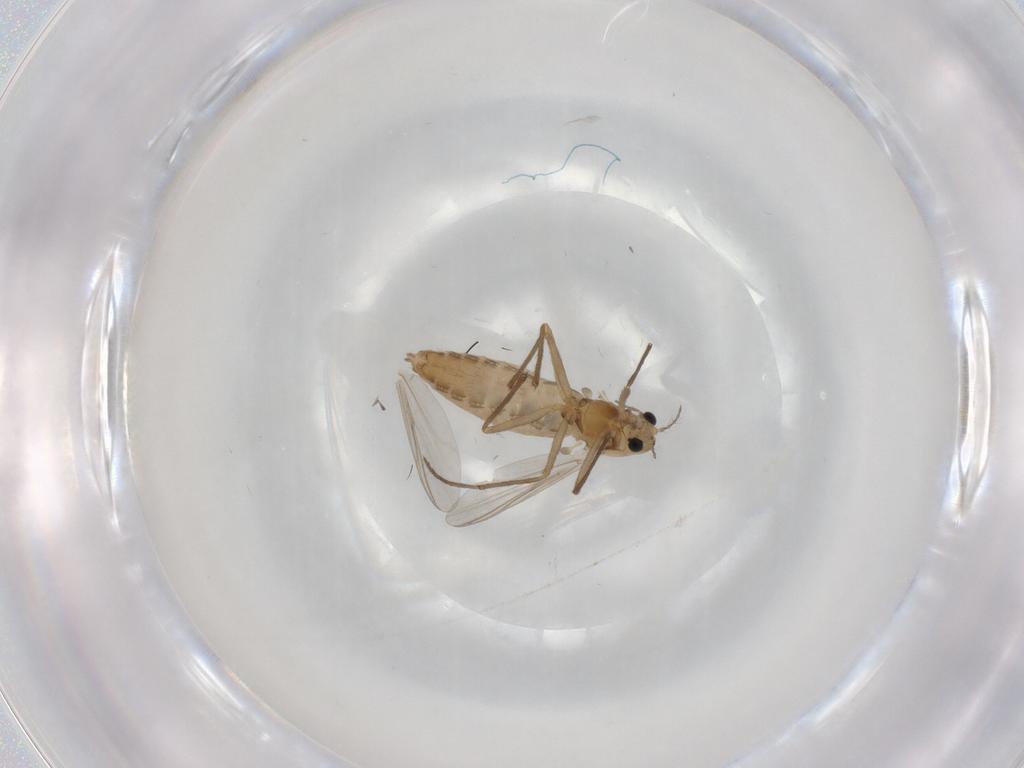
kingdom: Animalia
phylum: Arthropoda
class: Insecta
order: Diptera
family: Chironomidae
